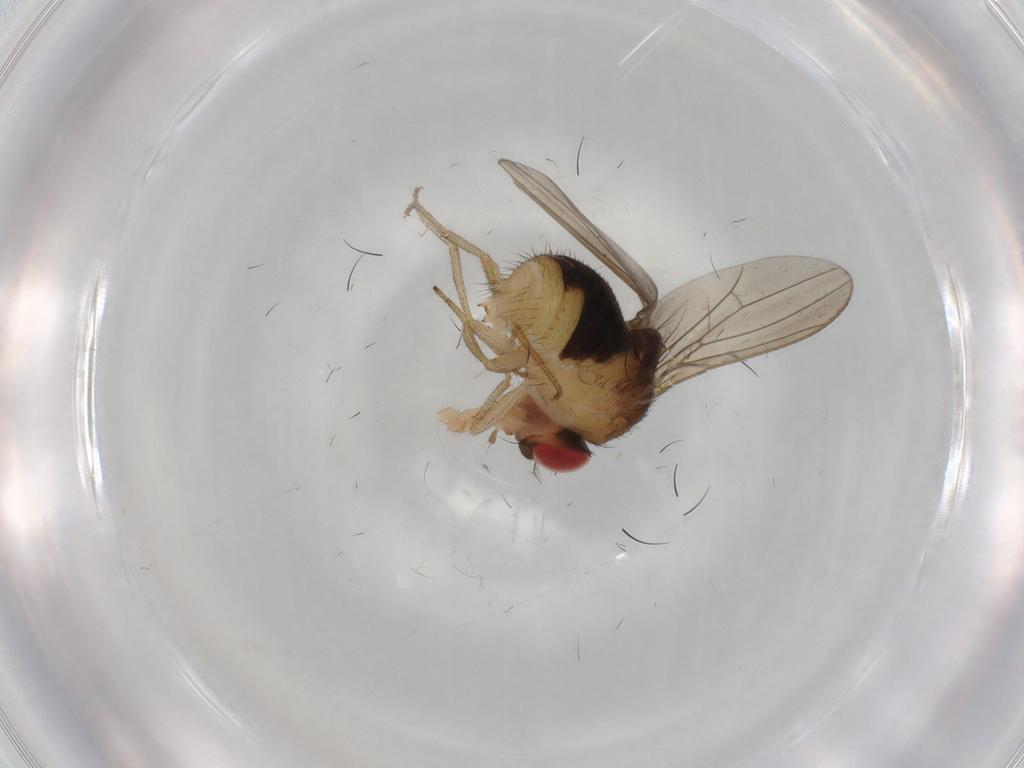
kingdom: Animalia
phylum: Arthropoda
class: Insecta
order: Diptera
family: Drosophilidae
